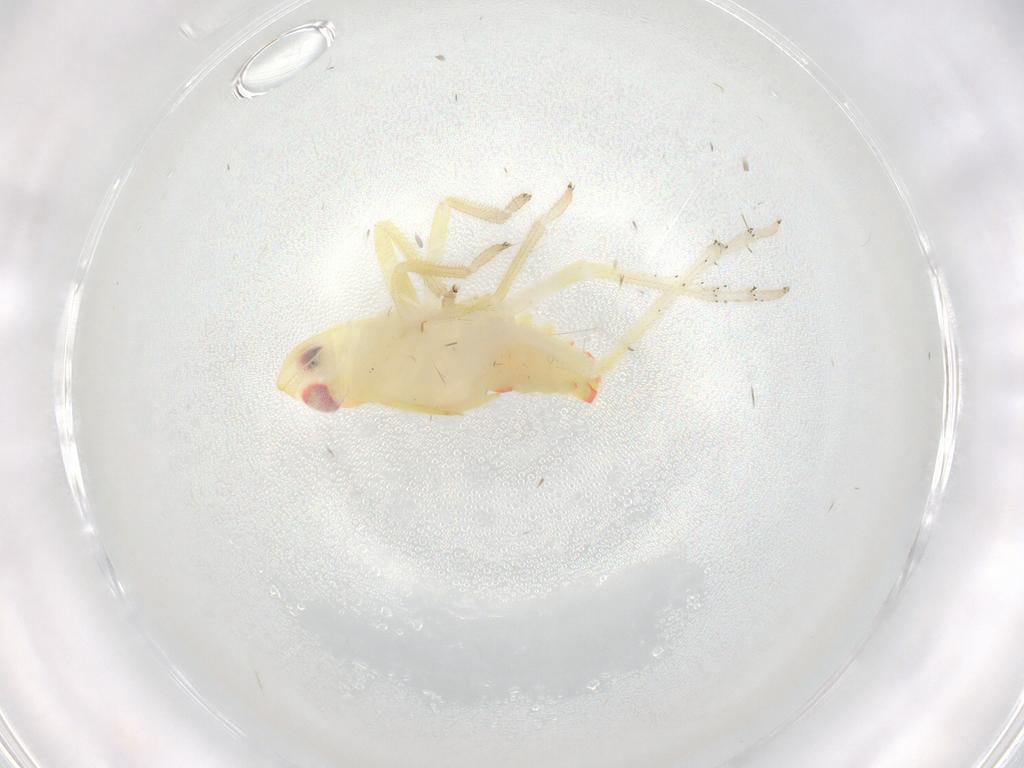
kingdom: Animalia
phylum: Arthropoda
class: Insecta
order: Hemiptera
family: Tropiduchidae
